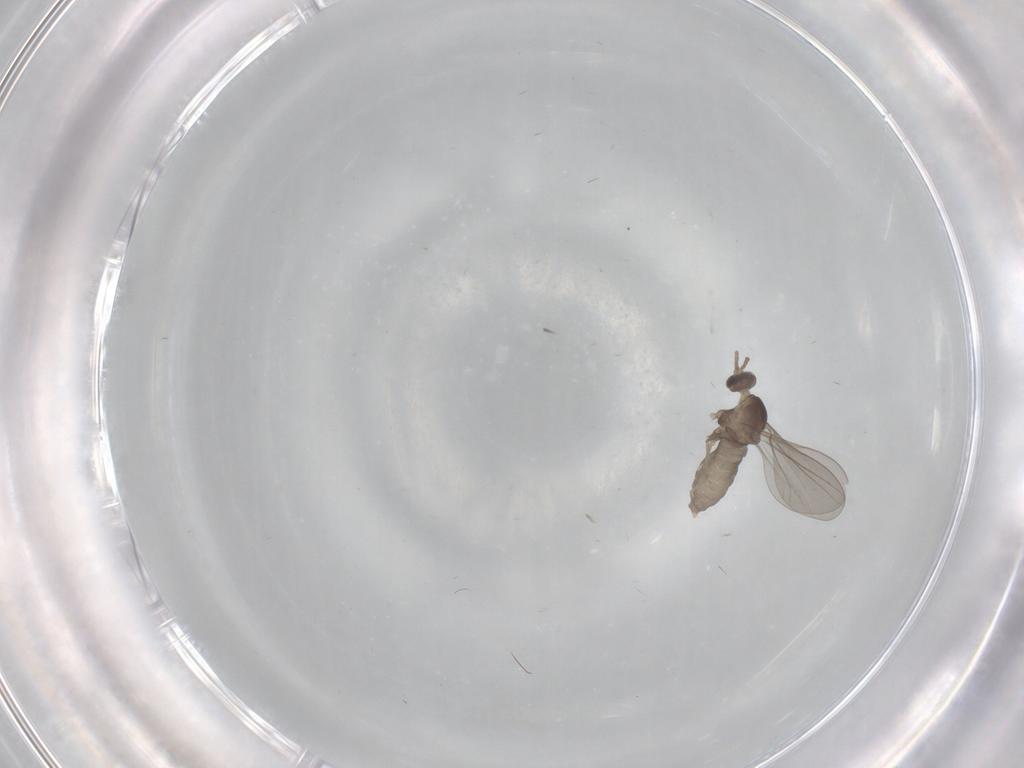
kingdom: Animalia
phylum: Arthropoda
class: Insecta
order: Diptera
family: Cecidomyiidae
